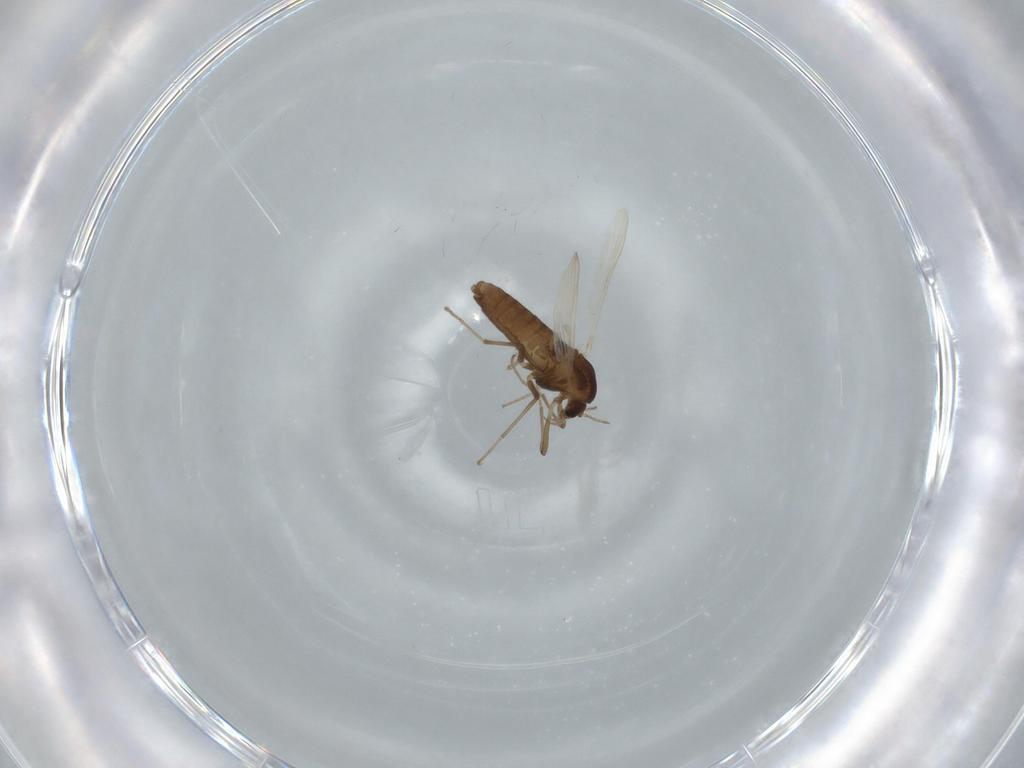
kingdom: Animalia
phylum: Arthropoda
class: Insecta
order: Diptera
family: Chironomidae
